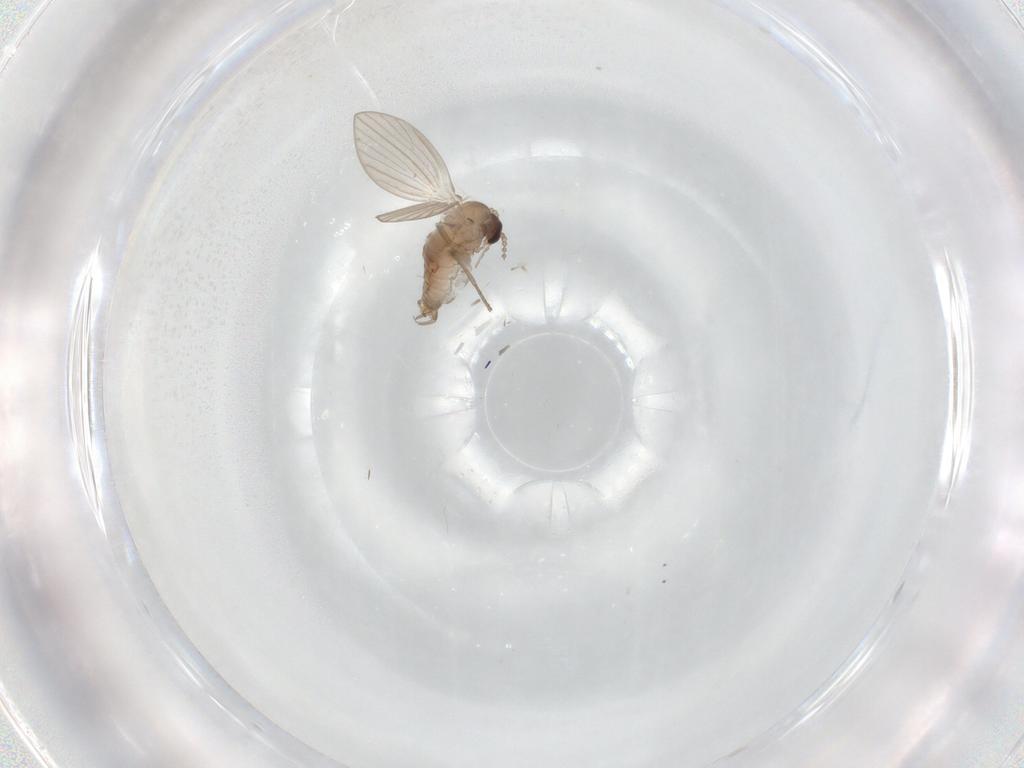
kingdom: Animalia
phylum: Arthropoda
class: Insecta
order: Diptera
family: Psychodidae
